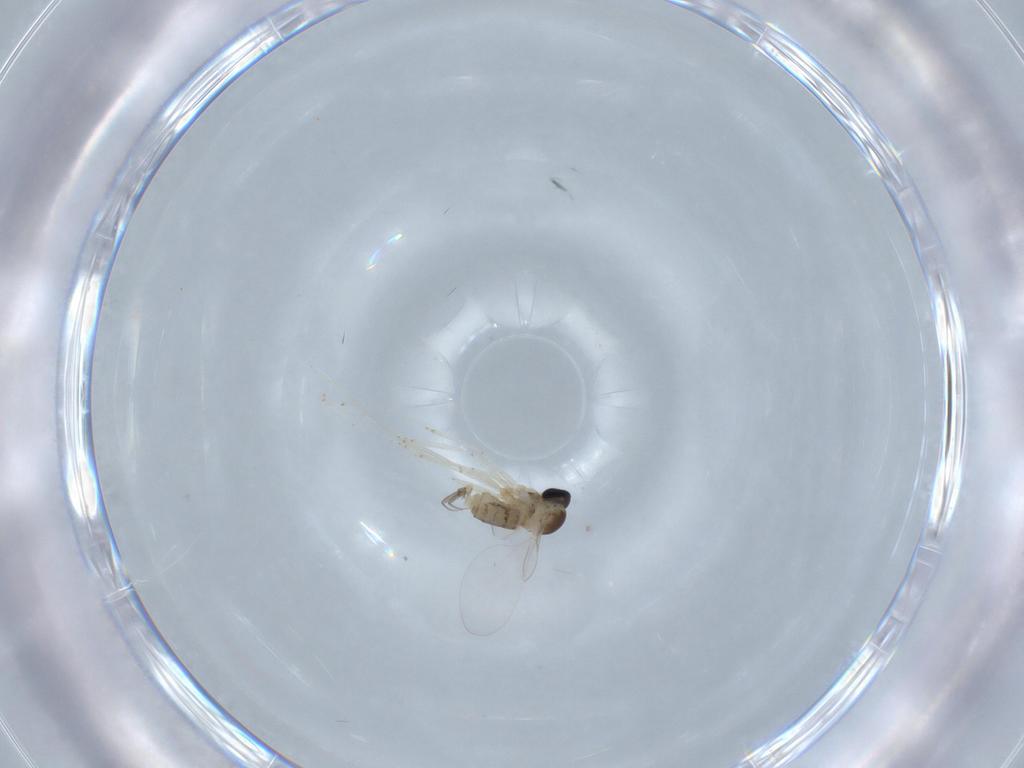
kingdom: Animalia
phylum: Arthropoda
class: Insecta
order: Diptera
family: Cecidomyiidae
